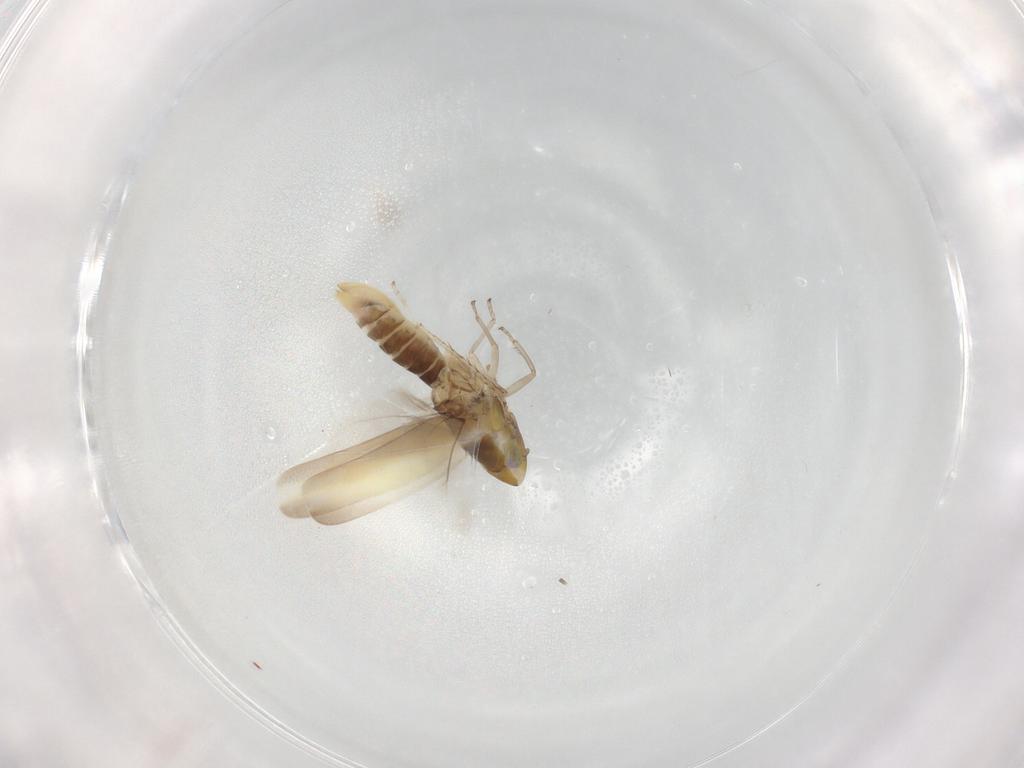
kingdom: Animalia
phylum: Arthropoda
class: Insecta
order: Hemiptera
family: Cicadellidae
